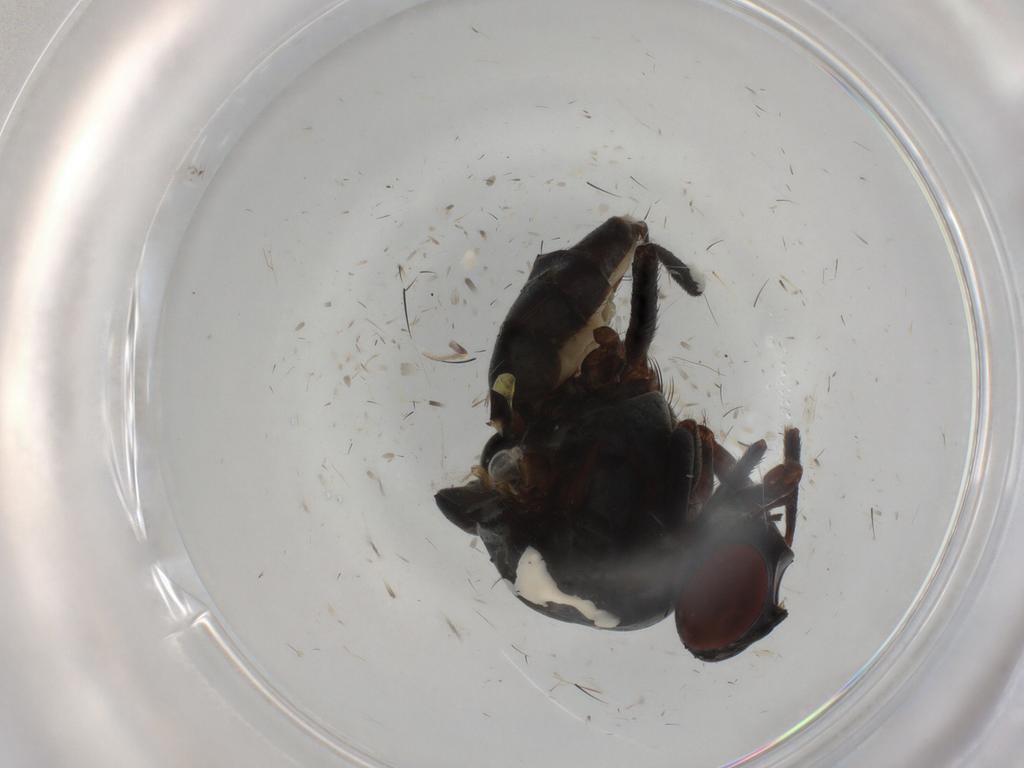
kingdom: Animalia
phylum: Arthropoda
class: Insecta
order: Diptera
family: Anthomyiidae
